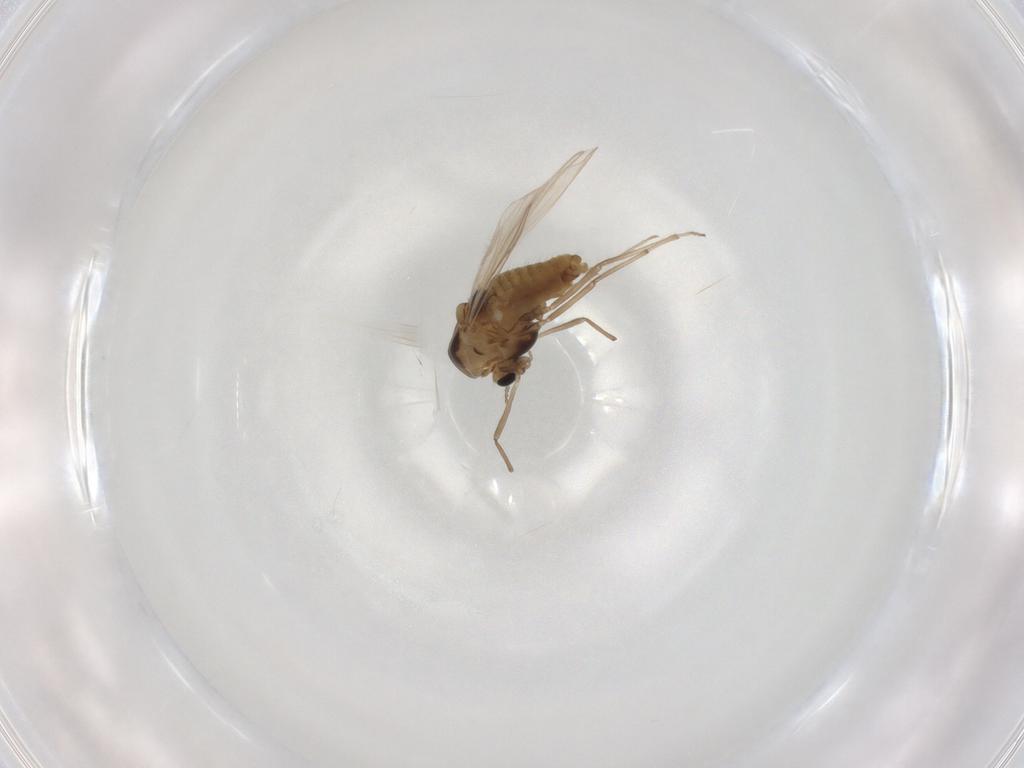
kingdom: Animalia
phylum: Arthropoda
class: Insecta
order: Diptera
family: Chironomidae
